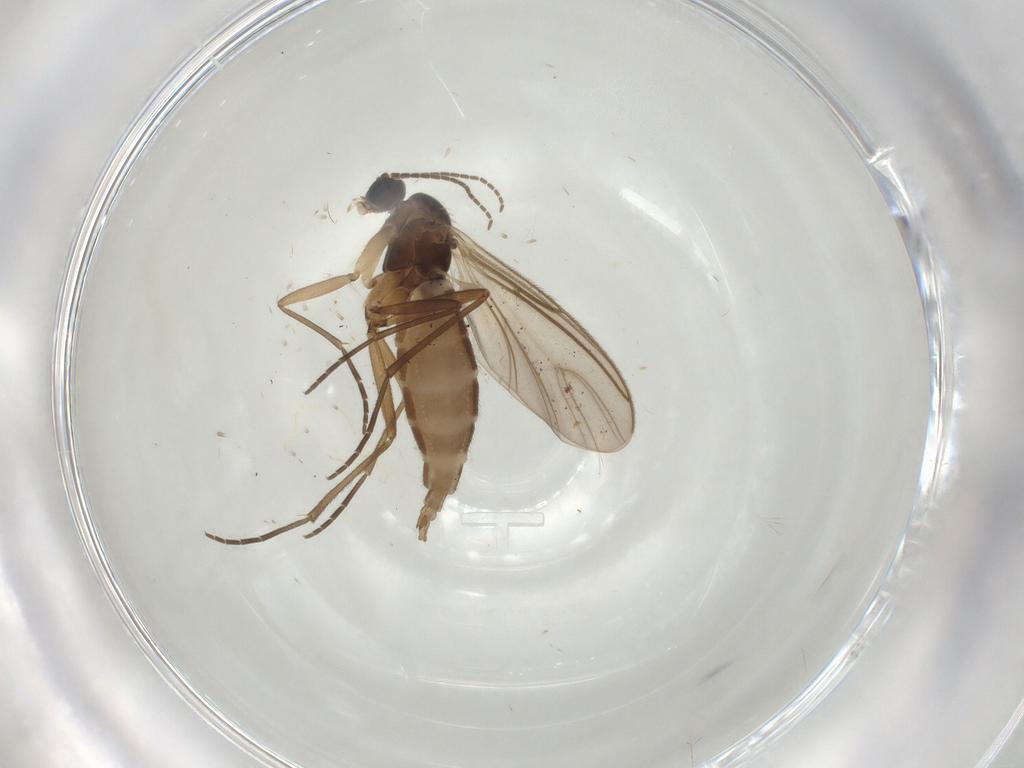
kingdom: Animalia
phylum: Arthropoda
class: Insecta
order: Diptera
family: Sciaridae
